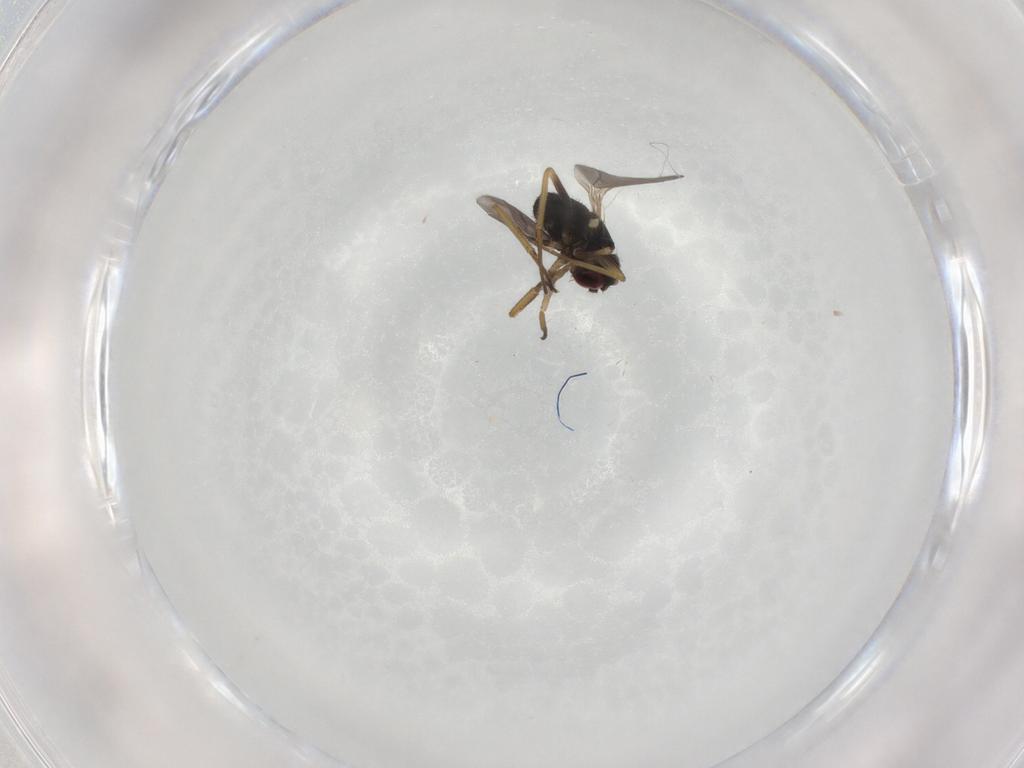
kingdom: Animalia
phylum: Arthropoda
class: Insecta
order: Diptera
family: Dolichopodidae
